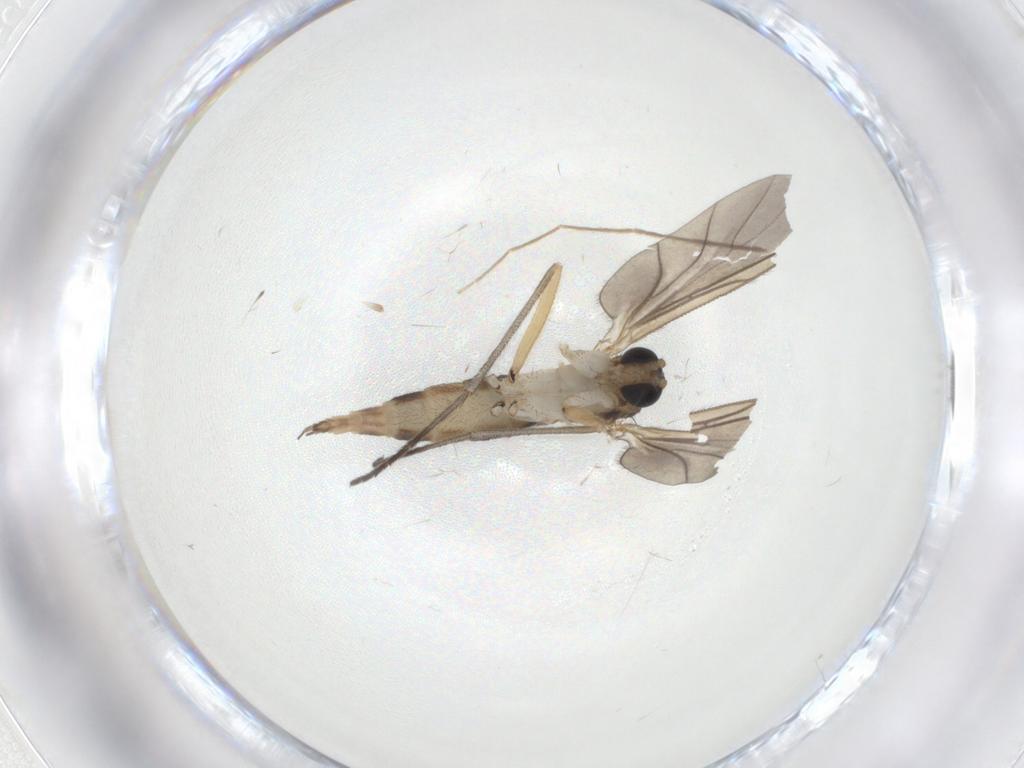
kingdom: Animalia
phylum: Arthropoda
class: Insecta
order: Diptera
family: Sciaridae
